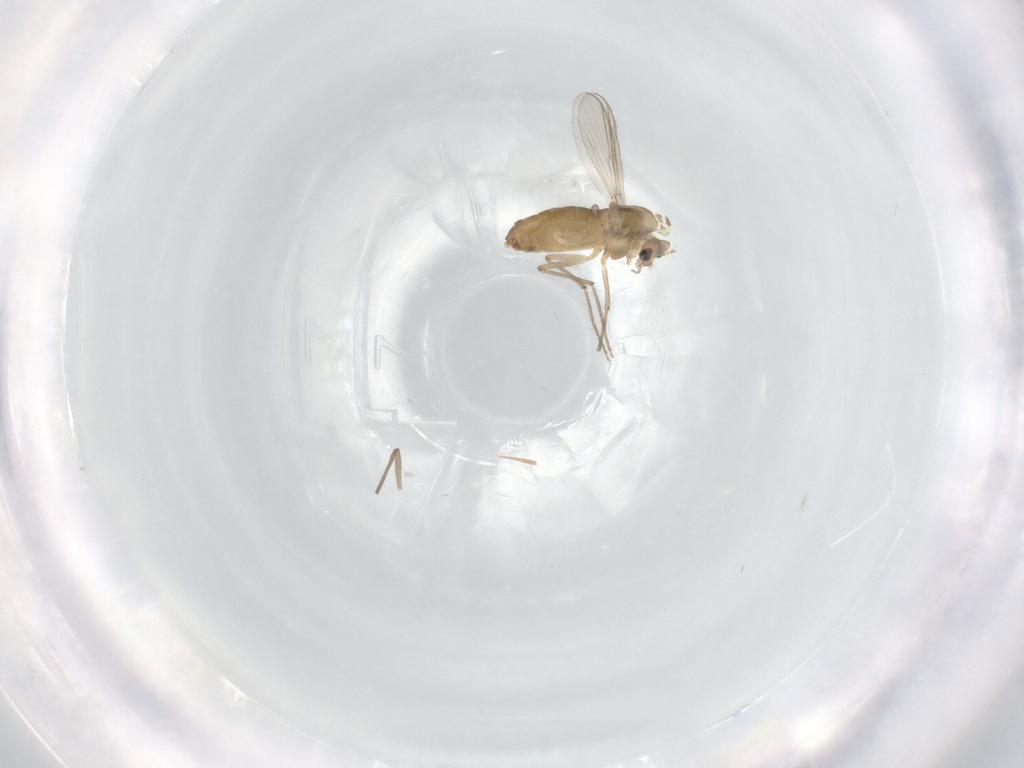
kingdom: Animalia
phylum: Arthropoda
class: Insecta
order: Diptera
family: Chironomidae
